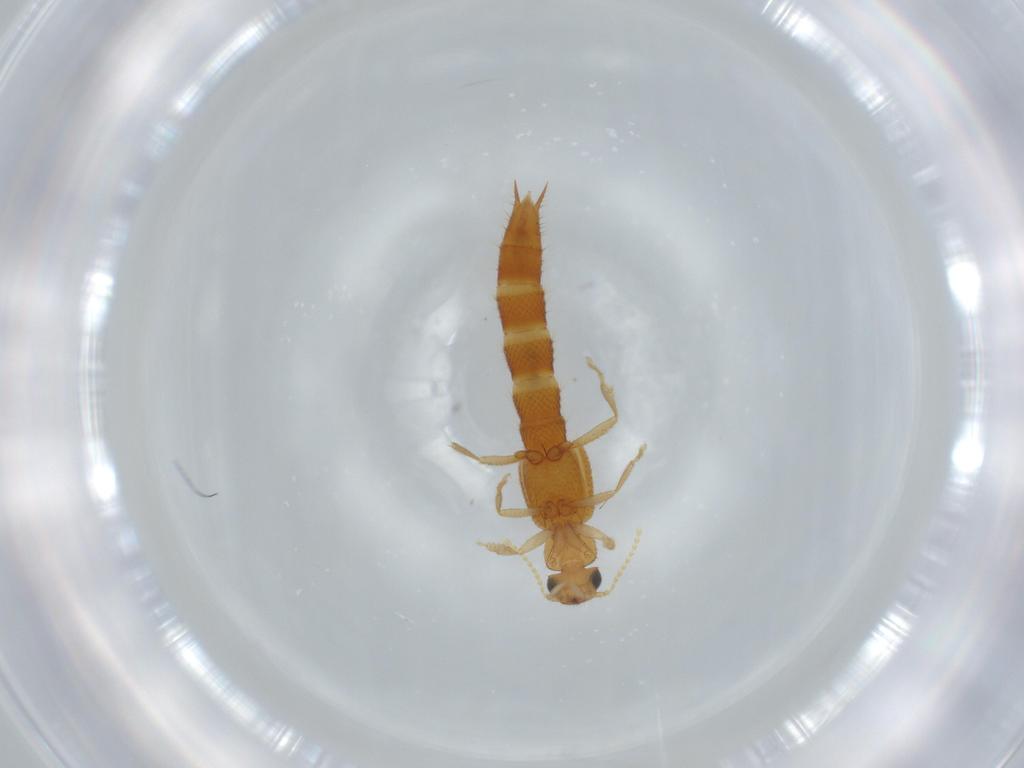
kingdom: Animalia
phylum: Arthropoda
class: Insecta
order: Coleoptera
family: Staphylinidae
